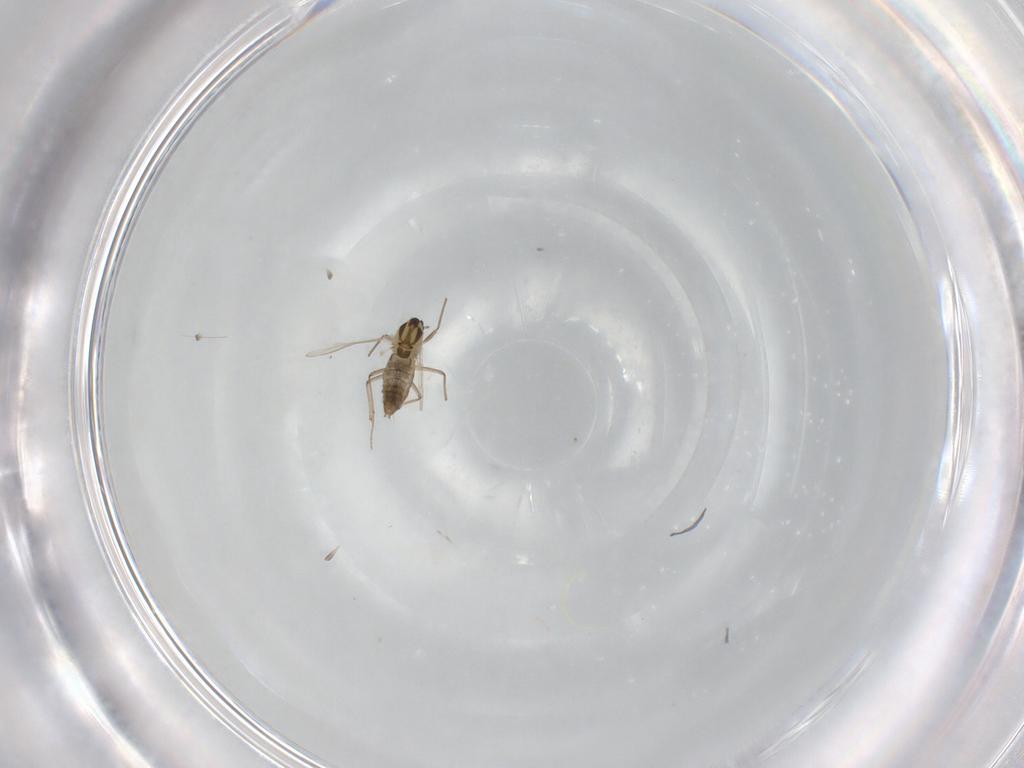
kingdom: Animalia
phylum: Arthropoda
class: Insecta
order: Diptera
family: Chironomidae
